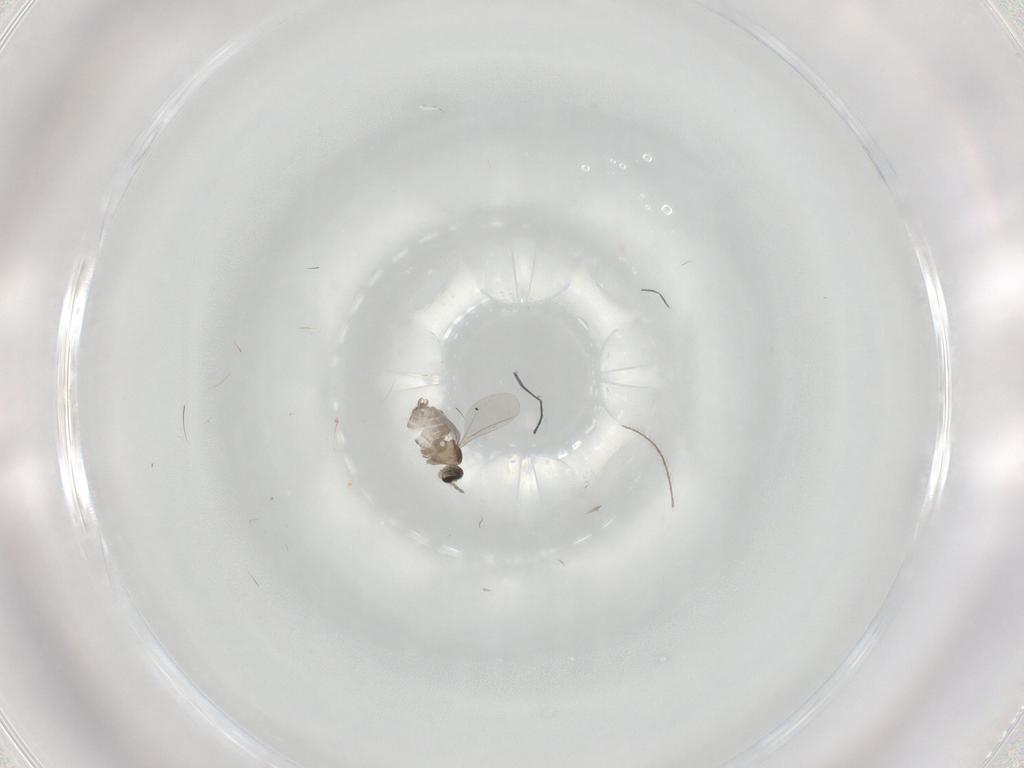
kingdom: Animalia
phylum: Arthropoda
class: Insecta
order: Diptera
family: Cecidomyiidae
